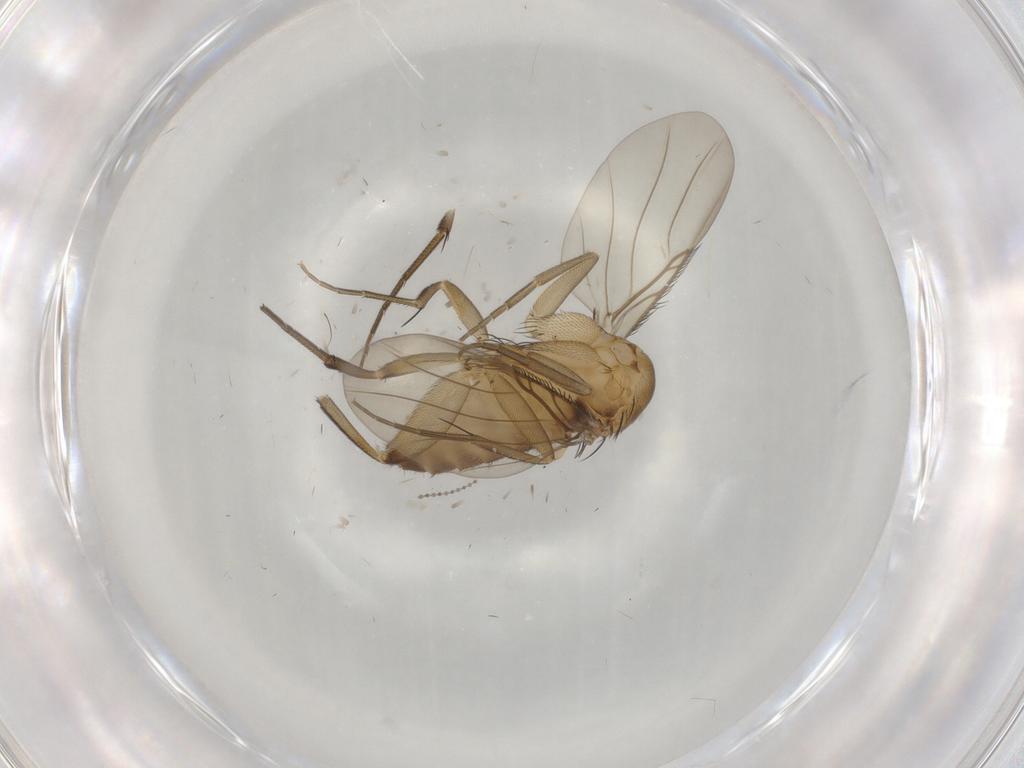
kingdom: Animalia
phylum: Arthropoda
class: Insecta
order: Diptera
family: Phoridae
